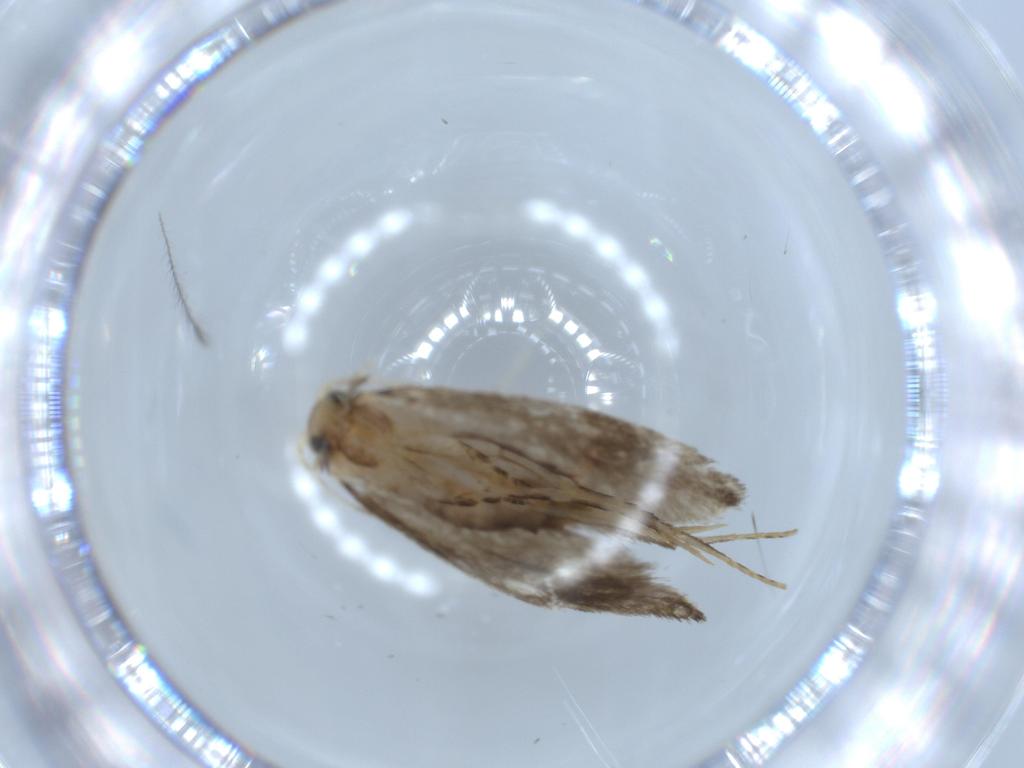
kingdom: Animalia
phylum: Arthropoda
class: Insecta
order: Lepidoptera
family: Tineidae
